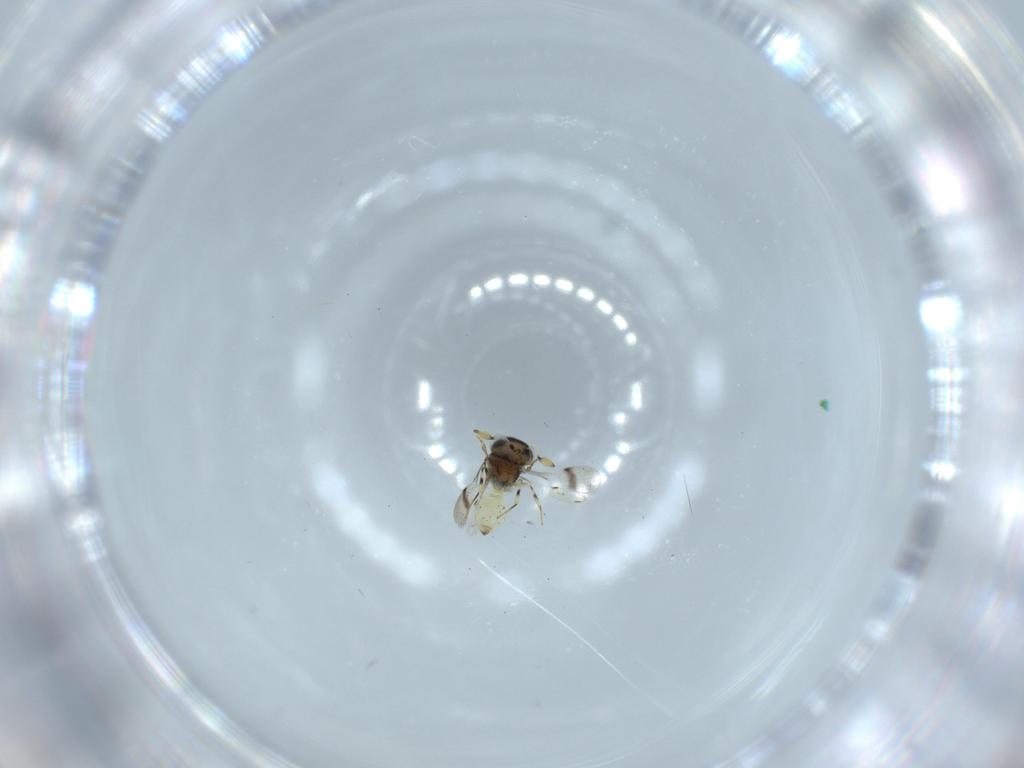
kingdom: Animalia
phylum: Arthropoda
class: Insecta
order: Hymenoptera
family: Scelionidae
